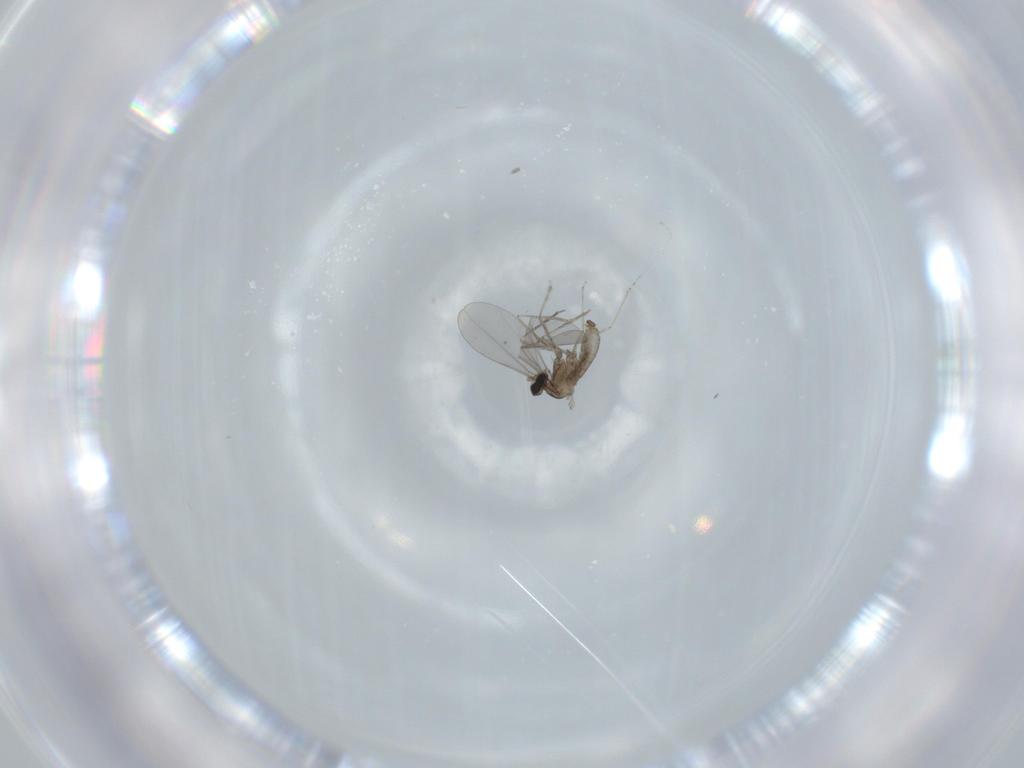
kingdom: Animalia
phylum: Arthropoda
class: Insecta
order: Diptera
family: Cecidomyiidae
